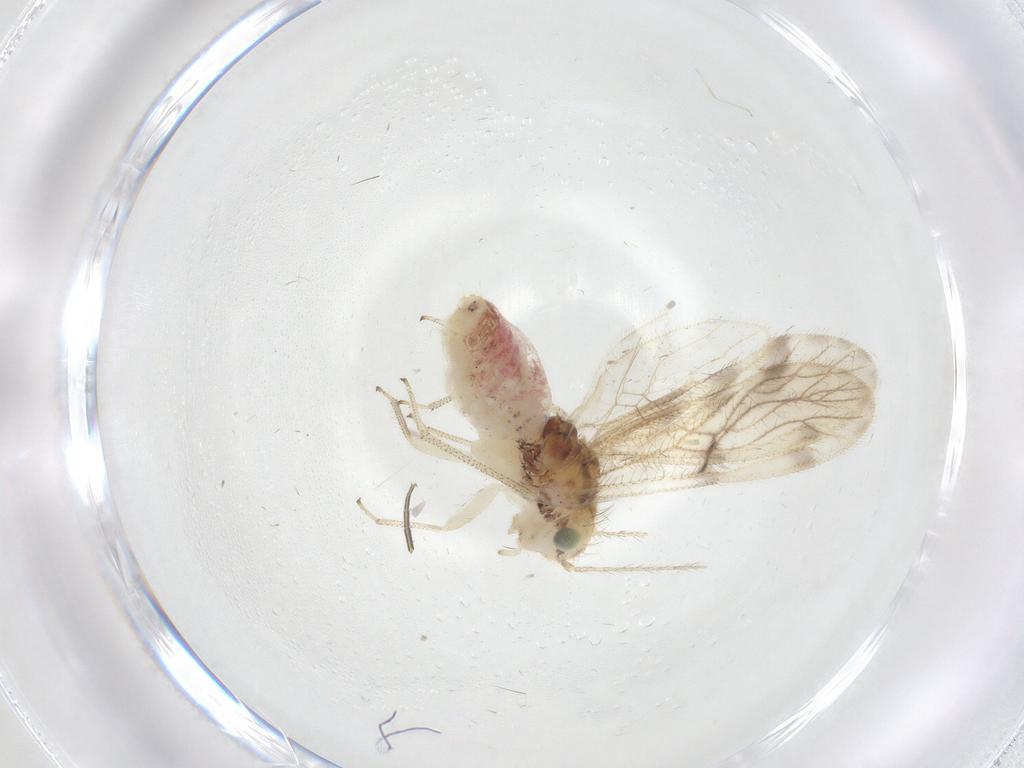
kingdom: Animalia
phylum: Arthropoda
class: Insecta
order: Psocodea
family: Pseudocaeciliidae
